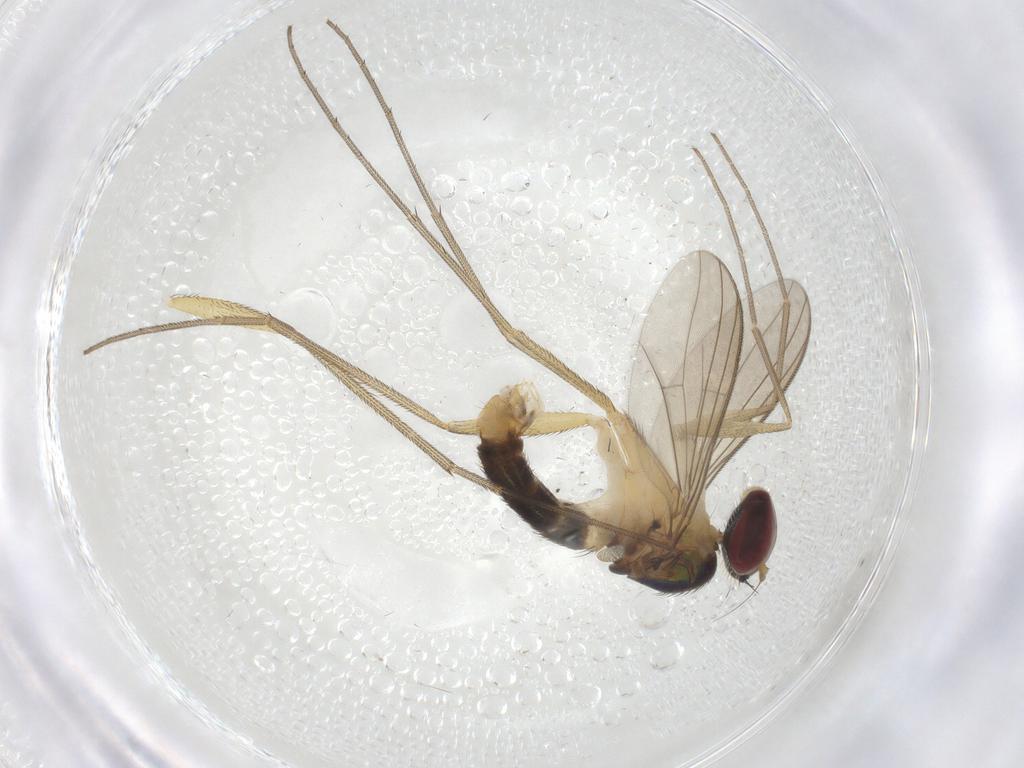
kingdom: Animalia
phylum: Arthropoda
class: Insecta
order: Diptera
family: Dolichopodidae
